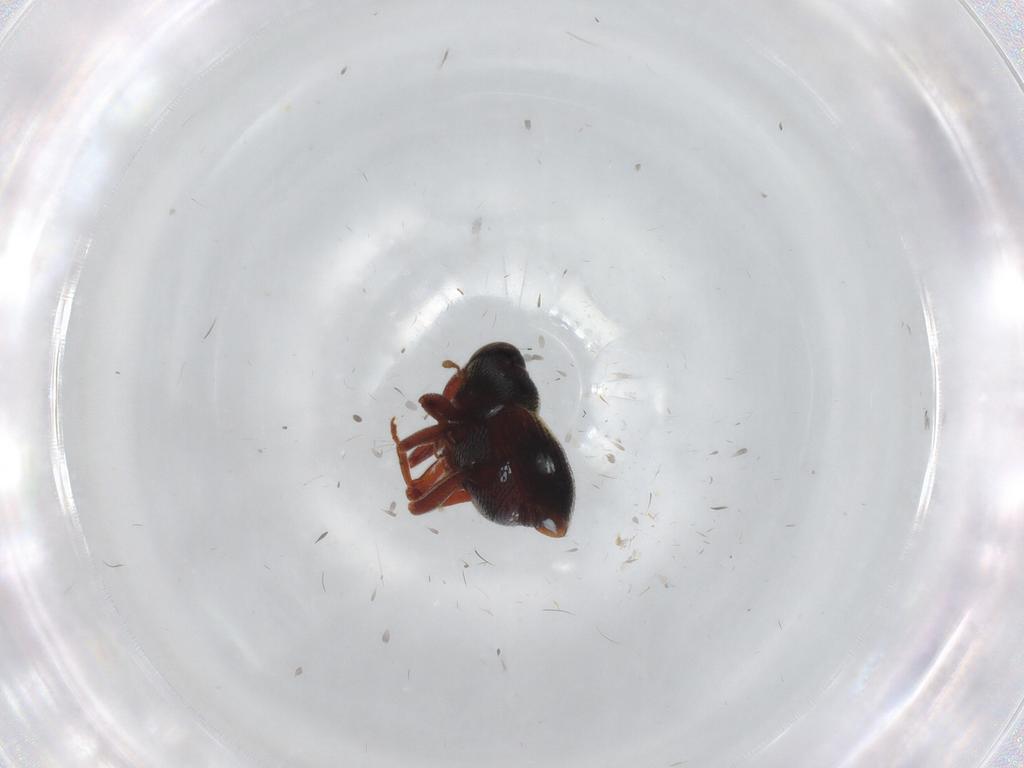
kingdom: Animalia
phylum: Arthropoda
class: Insecta
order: Coleoptera
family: Curculionidae
